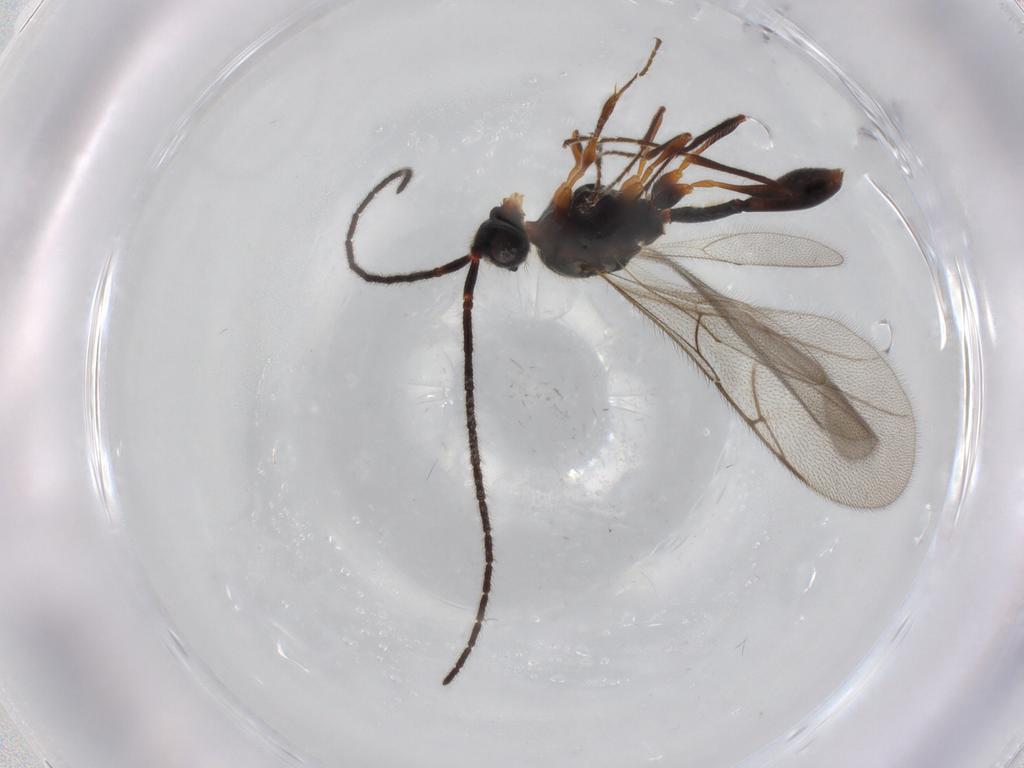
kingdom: Animalia
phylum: Arthropoda
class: Insecta
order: Hymenoptera
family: Diapriidae
